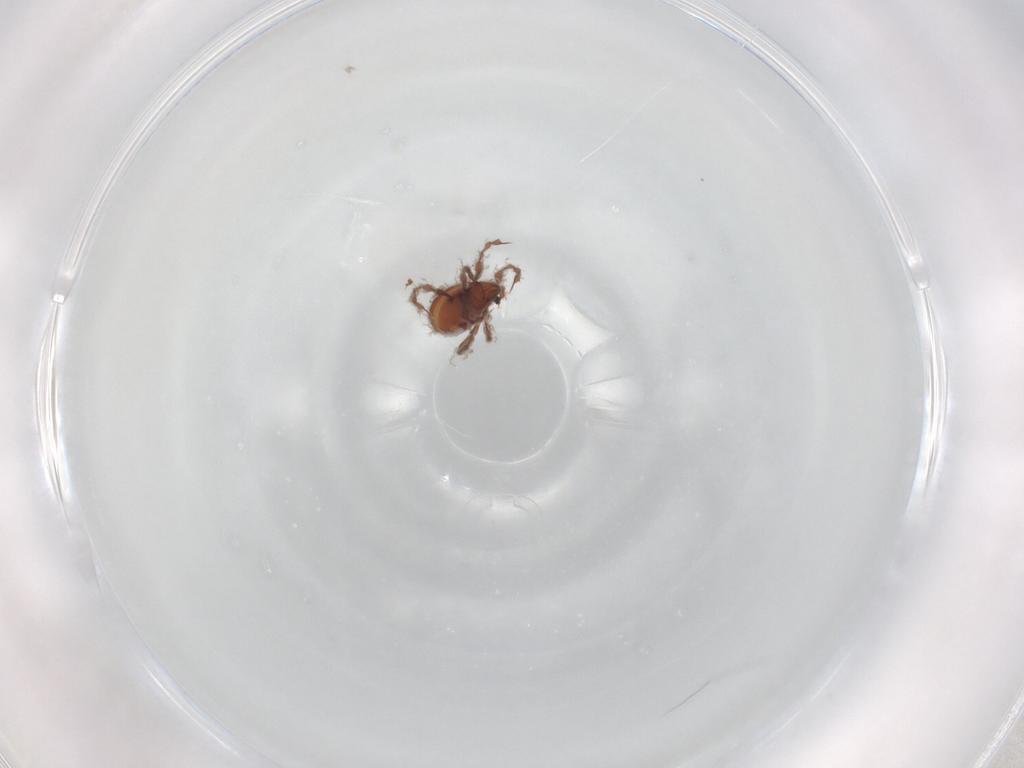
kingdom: Animalia
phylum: Arthropoda
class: Arachnida
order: Sarcoptiformes
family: Damaeidae
